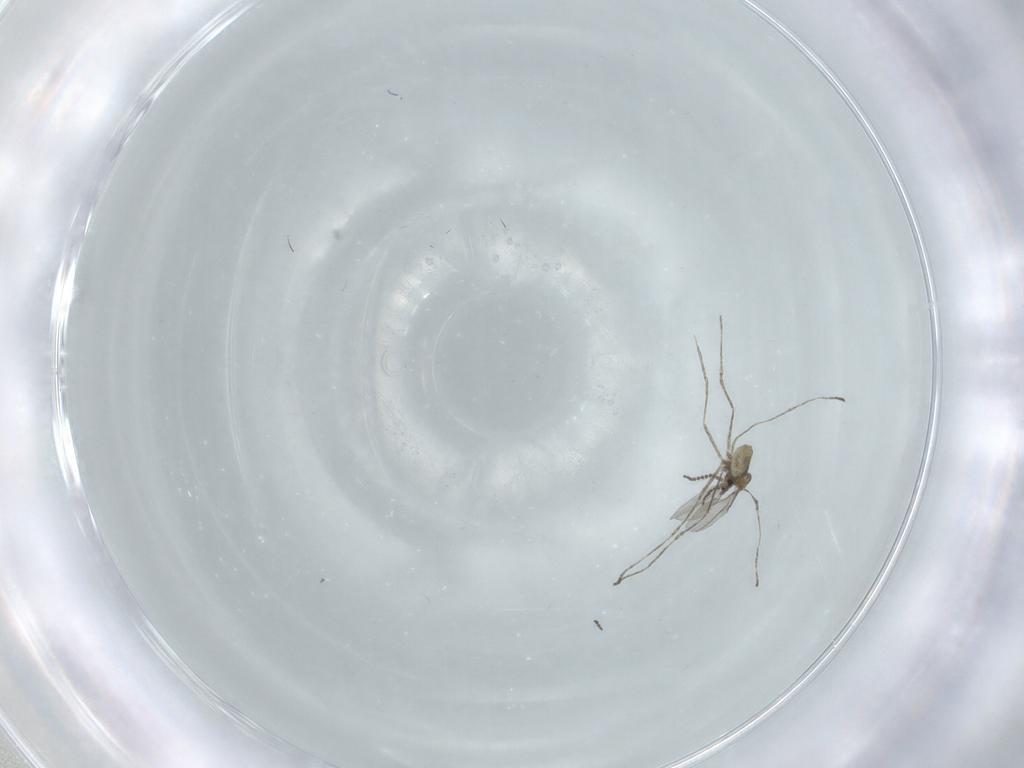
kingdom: Animalia
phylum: Arthropoda
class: Insecta
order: Diptera
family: Cecidomyiidae
